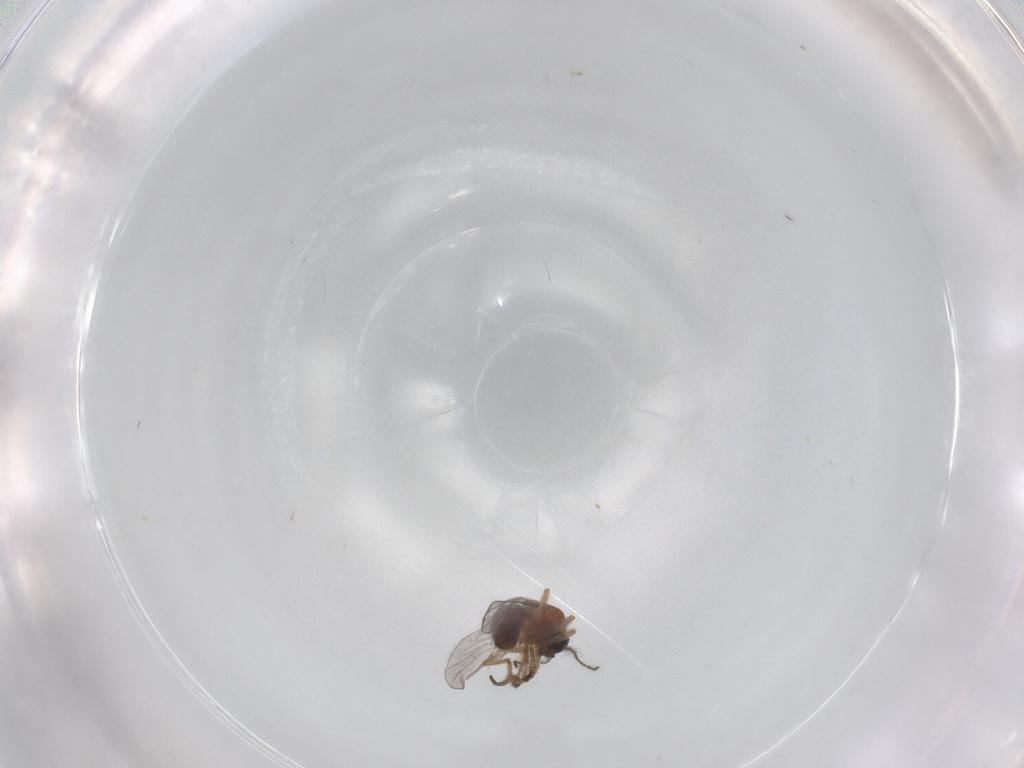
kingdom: Animalia
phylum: Arthropoda
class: Insecta
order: Diptera
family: Ceratopogonidae
